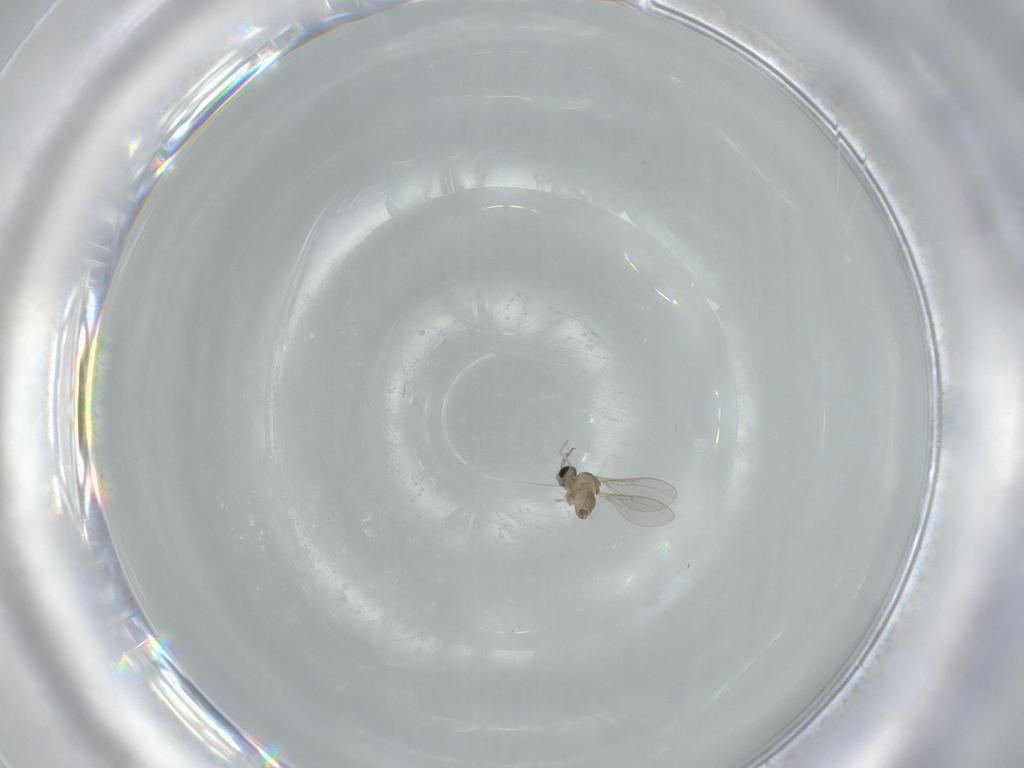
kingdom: Animalia
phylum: Arthropoda
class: Insecta
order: Diptera
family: Cecidomyiidae
